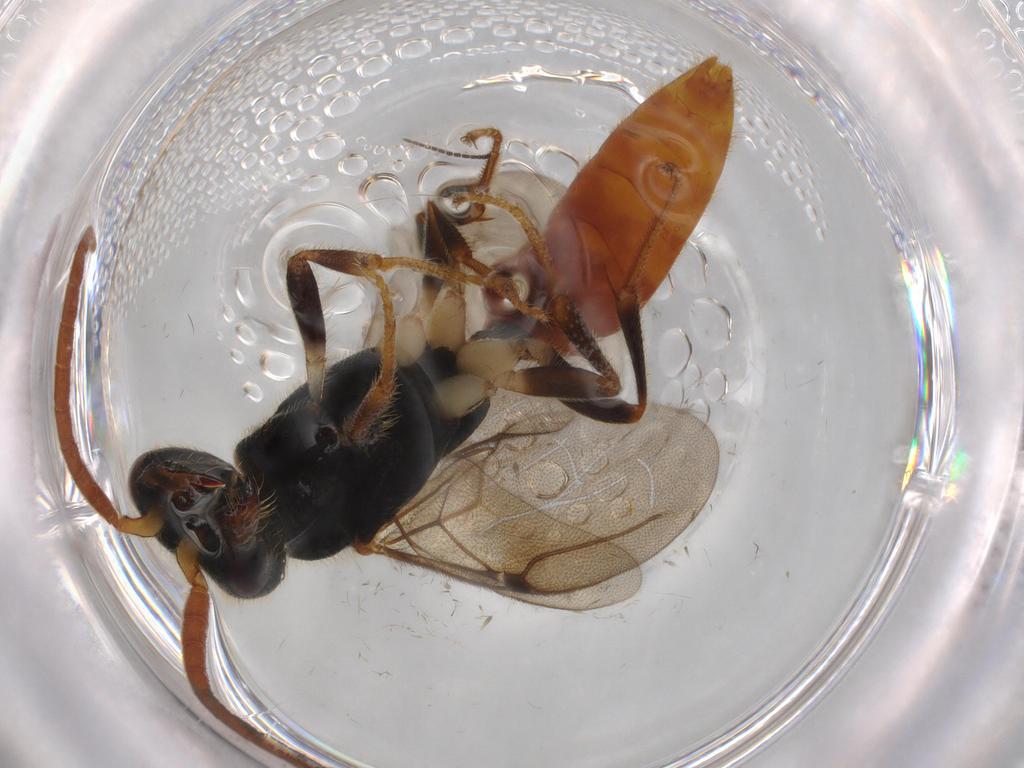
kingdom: Animalia
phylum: Arthropoda
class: Insecta
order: Hymenoptera
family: Bethylidae
